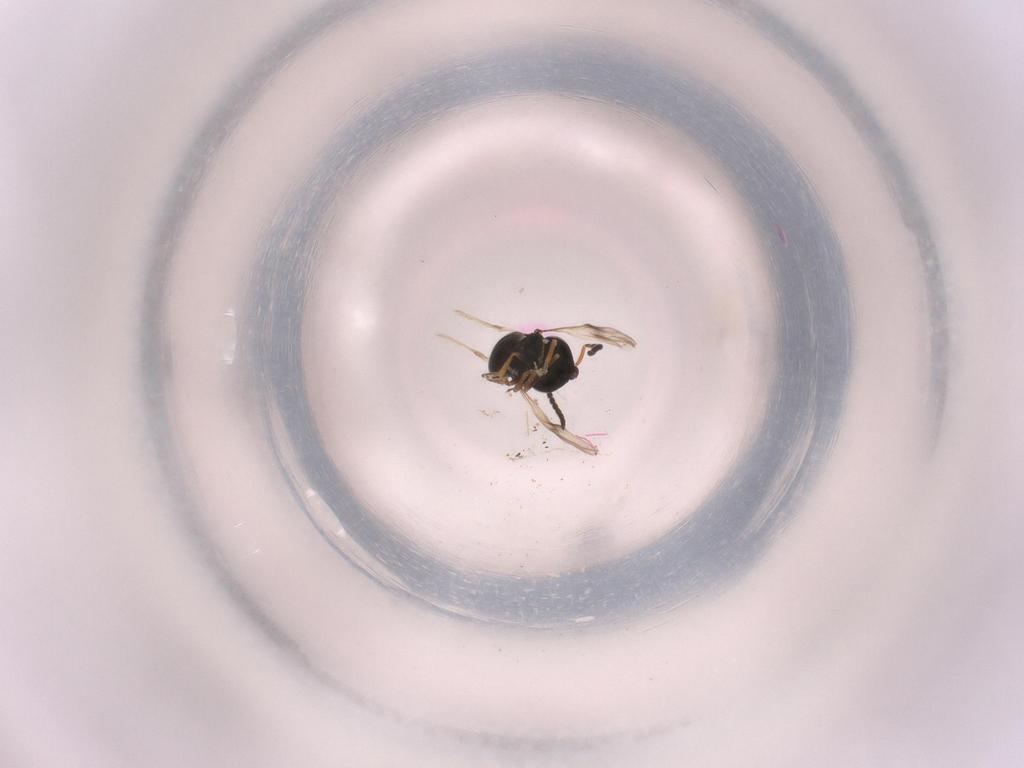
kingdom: Animalia
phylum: Arthropoda
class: Insecta
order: Hymenoptera
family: Scelionidae
